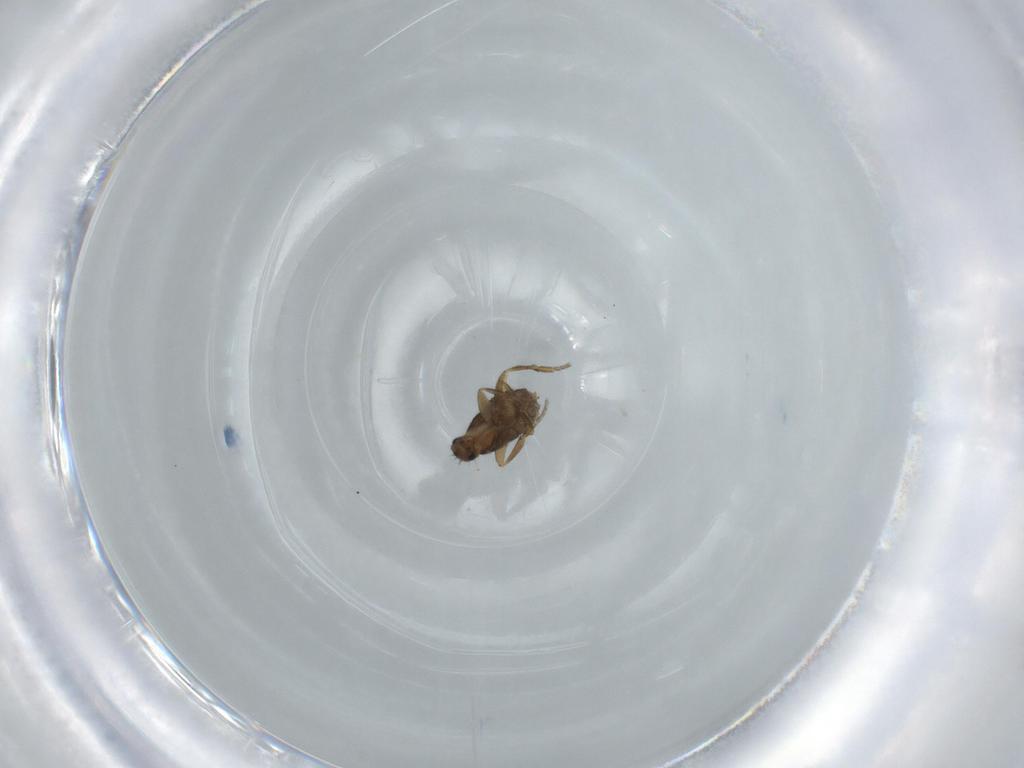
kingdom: Animalia
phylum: Arthropoda
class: Insecta
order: Diptera
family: Phoridae
